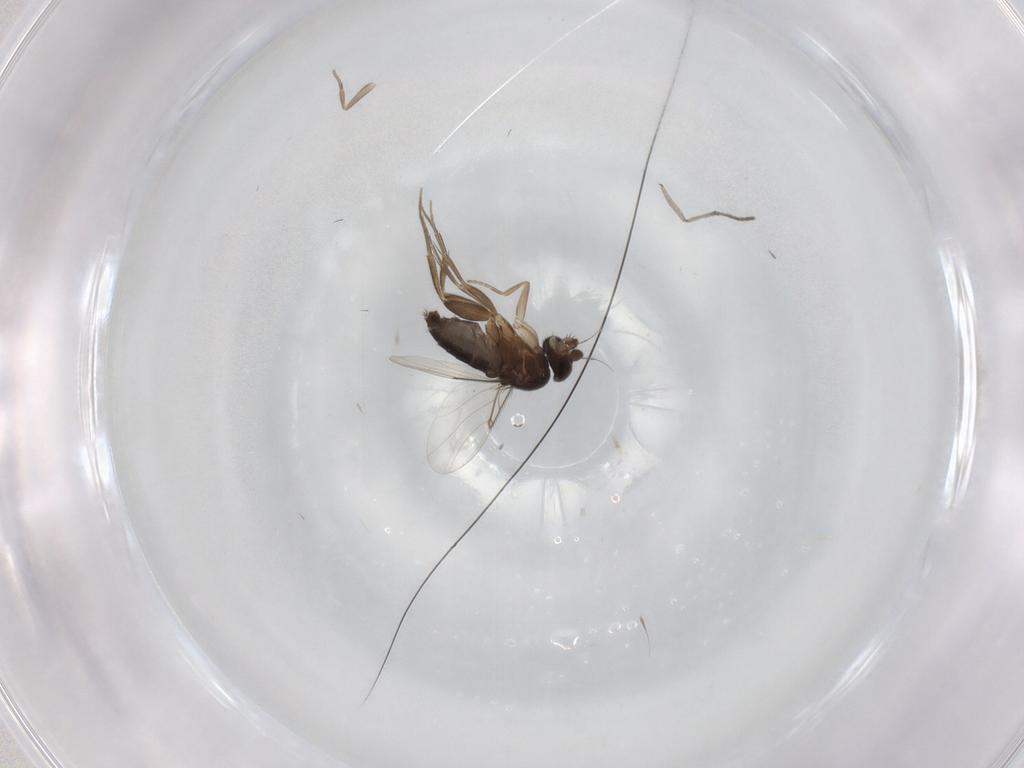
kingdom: Animalia
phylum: Arthropoda
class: Insecta
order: Diptera
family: Phoridae
